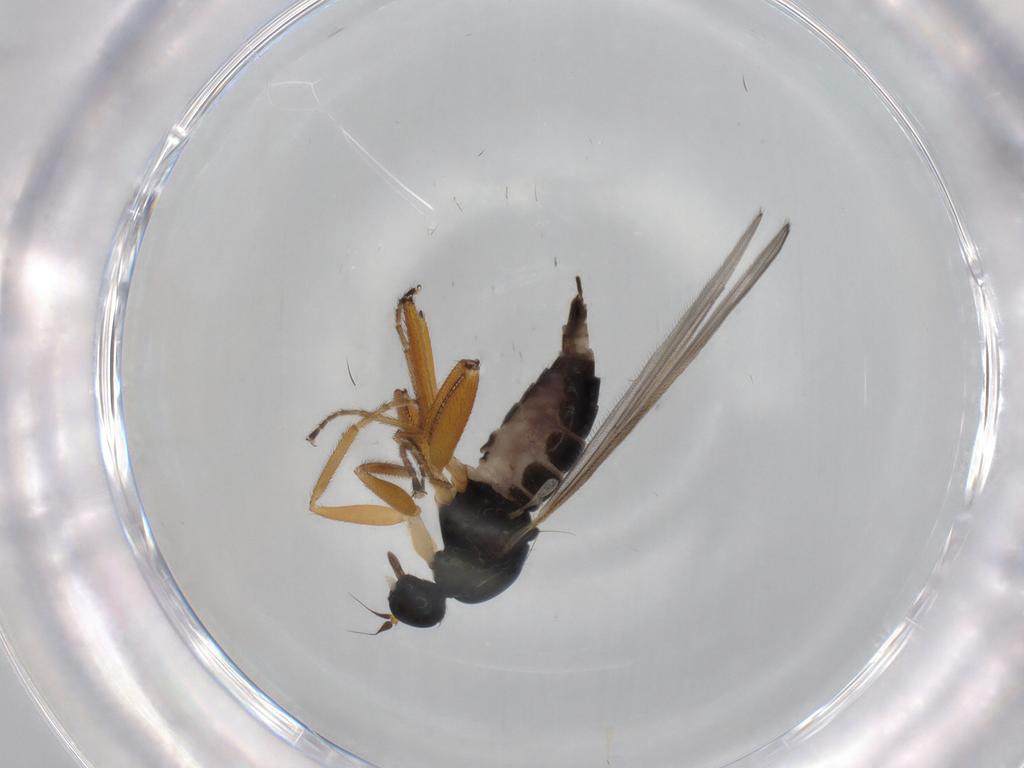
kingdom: Animalia
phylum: Arthropoda
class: Insecta
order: Diptera
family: Hybotidae
